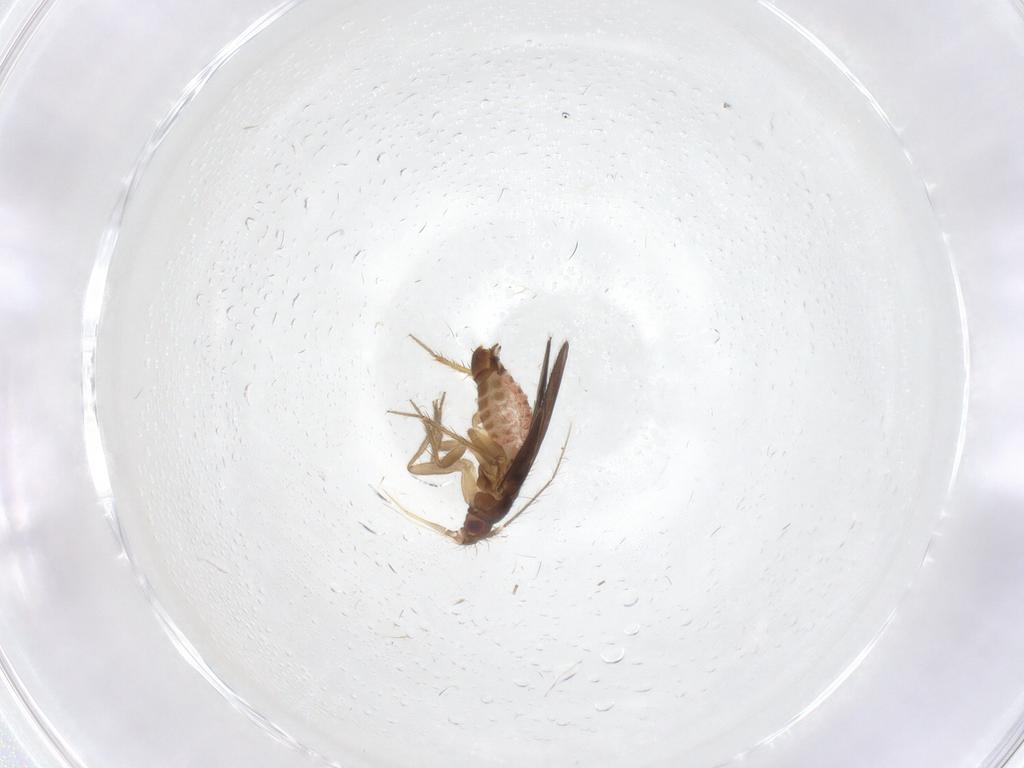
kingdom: Animalia
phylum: Arthropoda
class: Insecta
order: Hemiptera
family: Ceratocombidae
